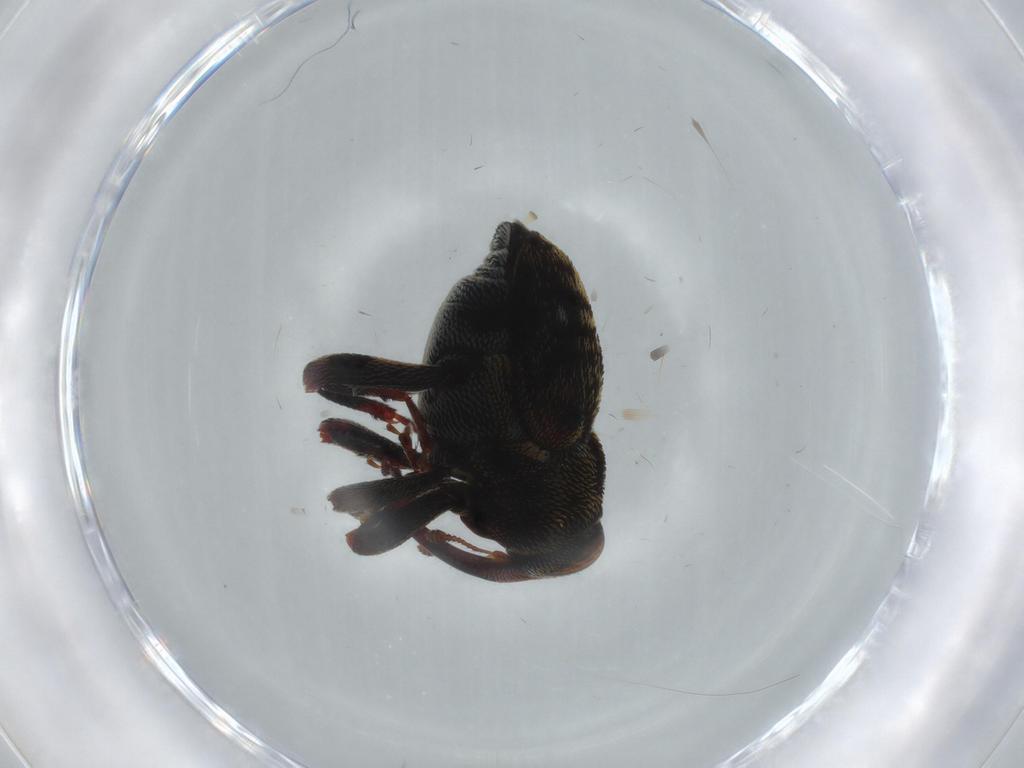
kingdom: Animalia
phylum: Arthropoda
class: Insecta
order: Coleoptera
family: Curculionidae
